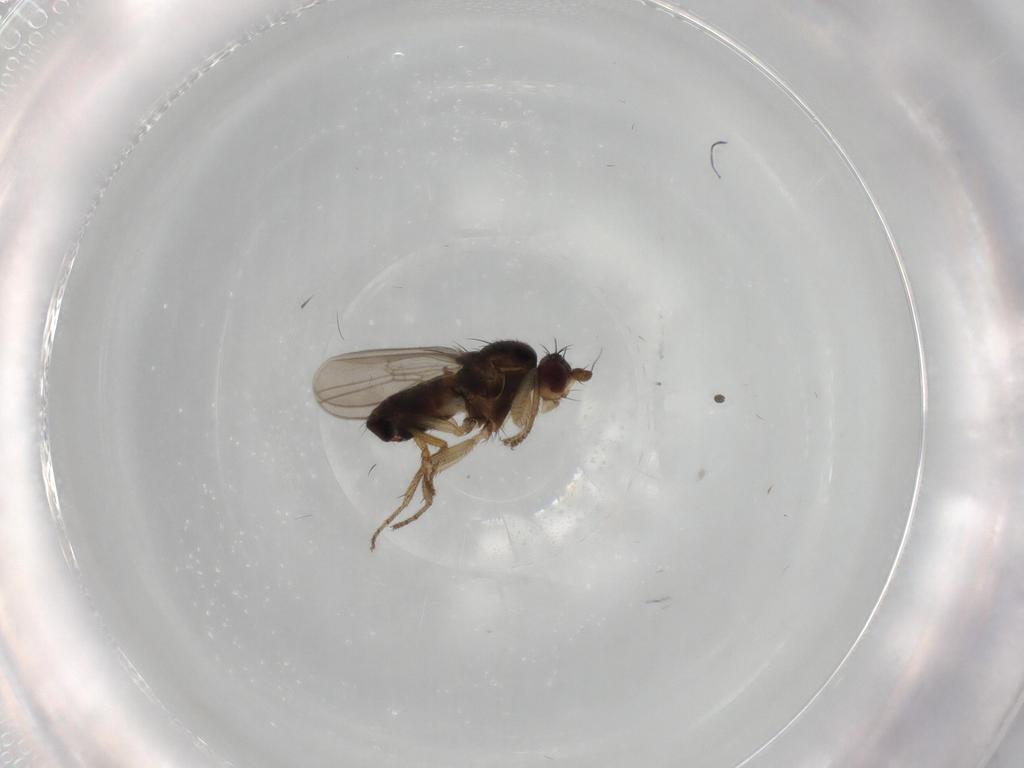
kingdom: Animalia
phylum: Arthropoda
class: Insecta
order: Diptera
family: Sphaeroceridae
